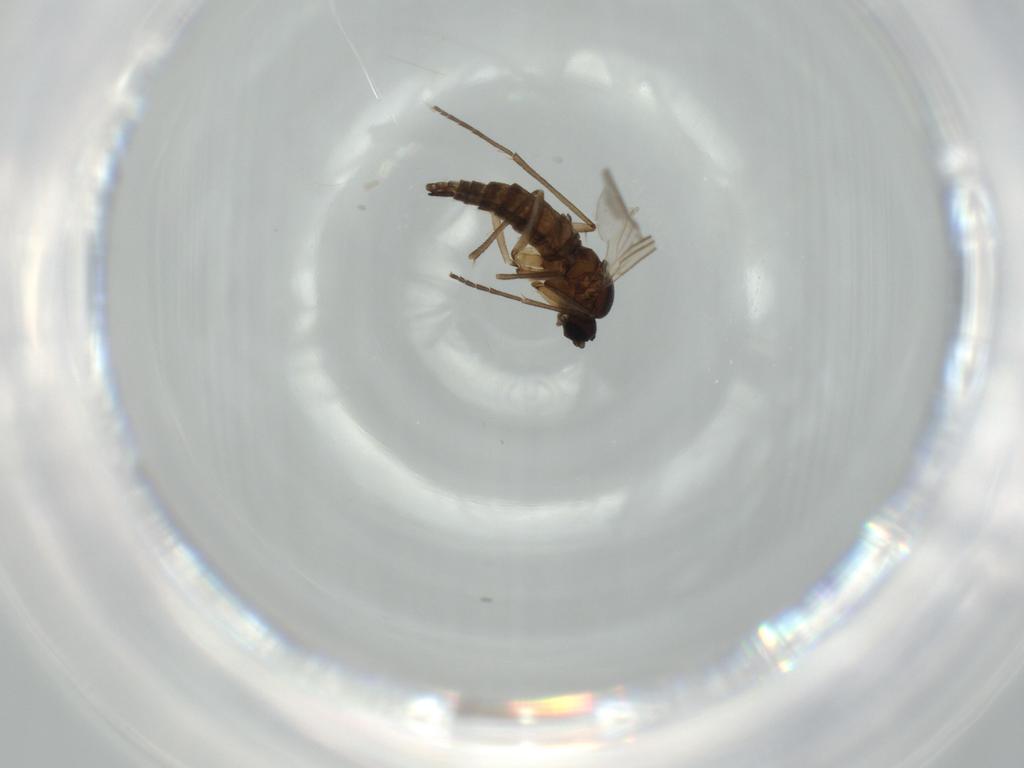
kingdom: Animalia
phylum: Arthropoda
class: Insecta
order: Diptera
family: Sciaridae
